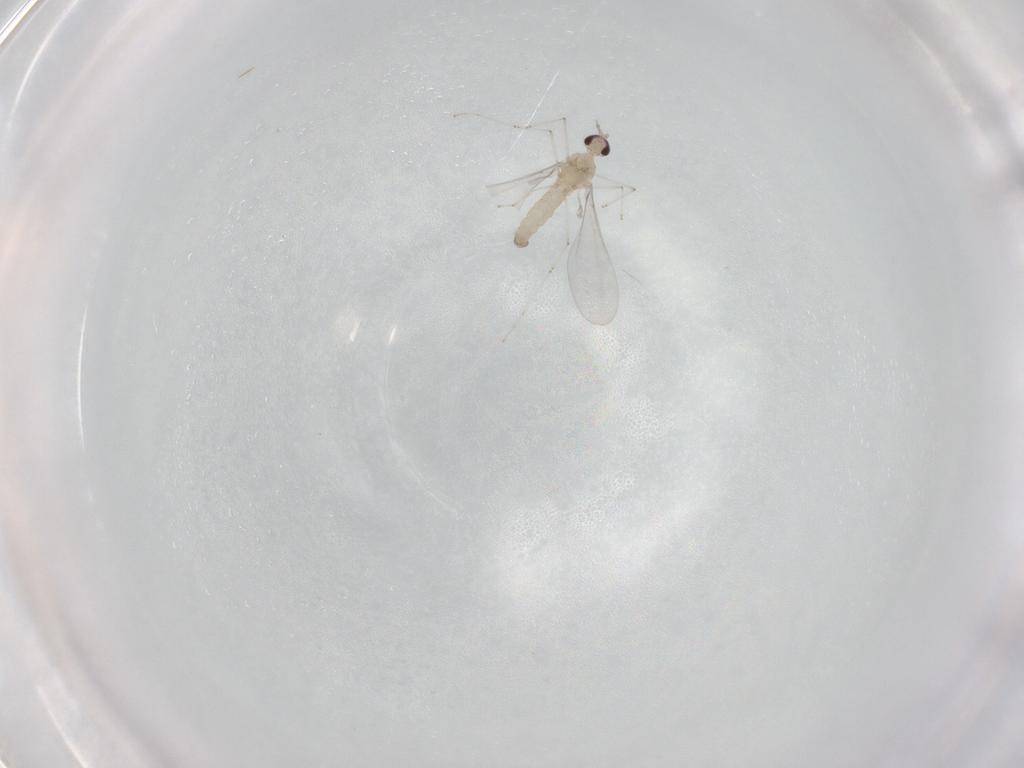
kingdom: Animalia
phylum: Arthropoda
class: Insecta
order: Diptera
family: Cecidomyiidae
